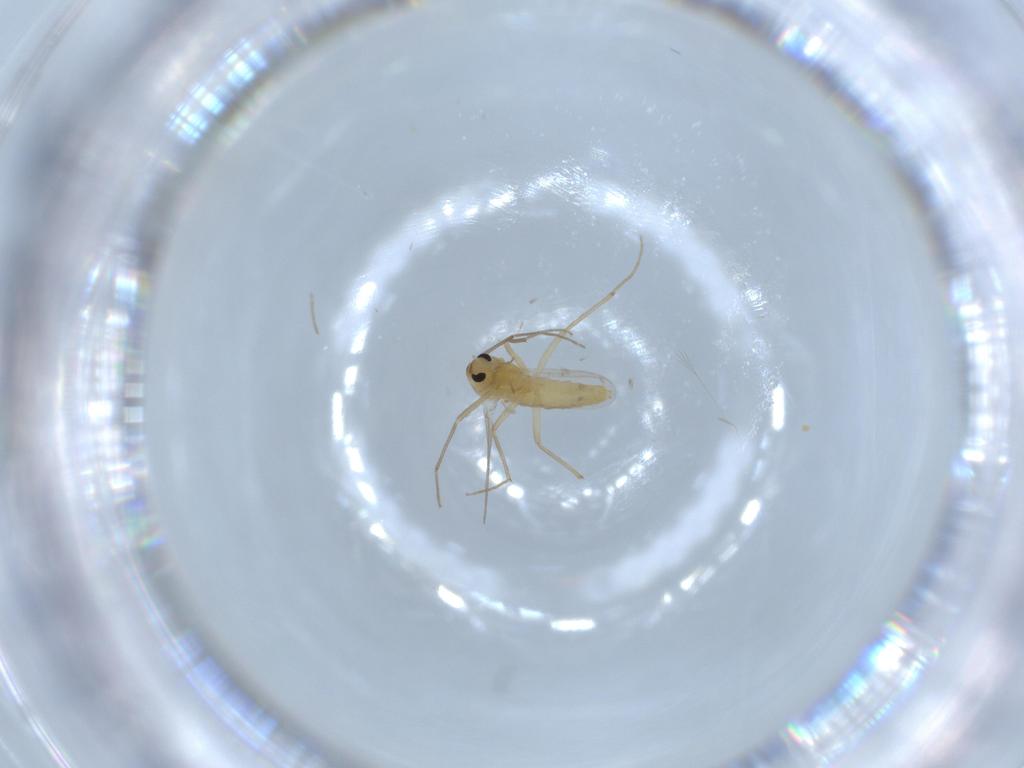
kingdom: Animalia
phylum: Arthropoda
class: Insecta
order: Diptera
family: Chironomidae
